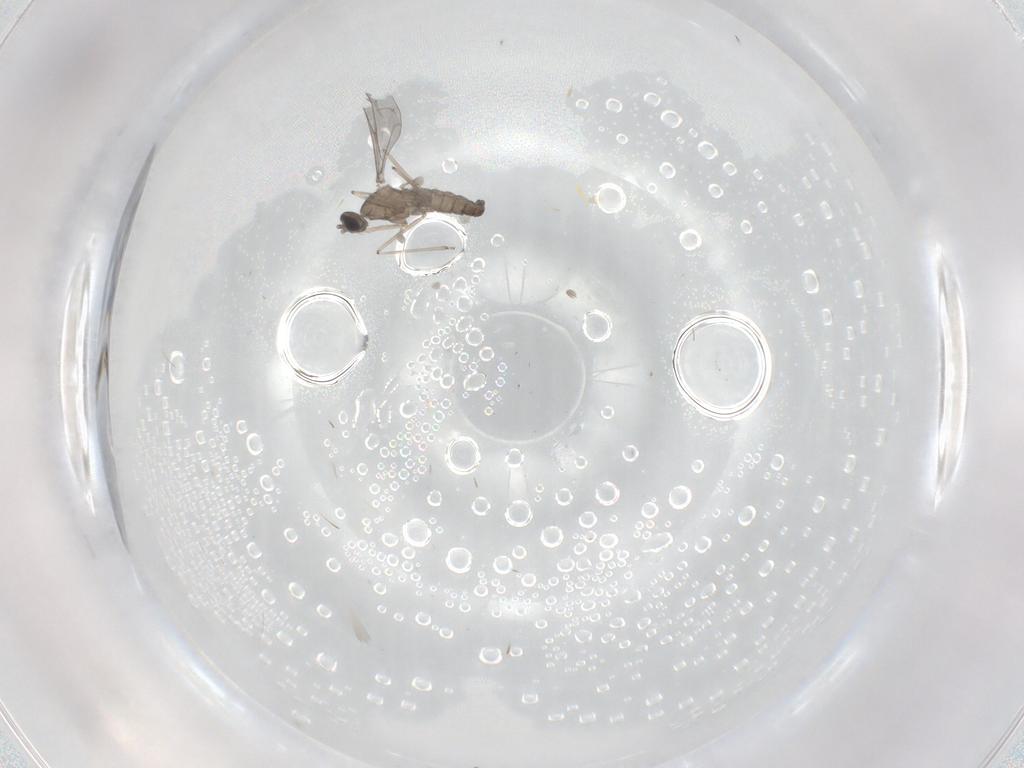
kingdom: Animalia
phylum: Arthropoda
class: Insecta
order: Diptera
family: Cecidomyiidae
